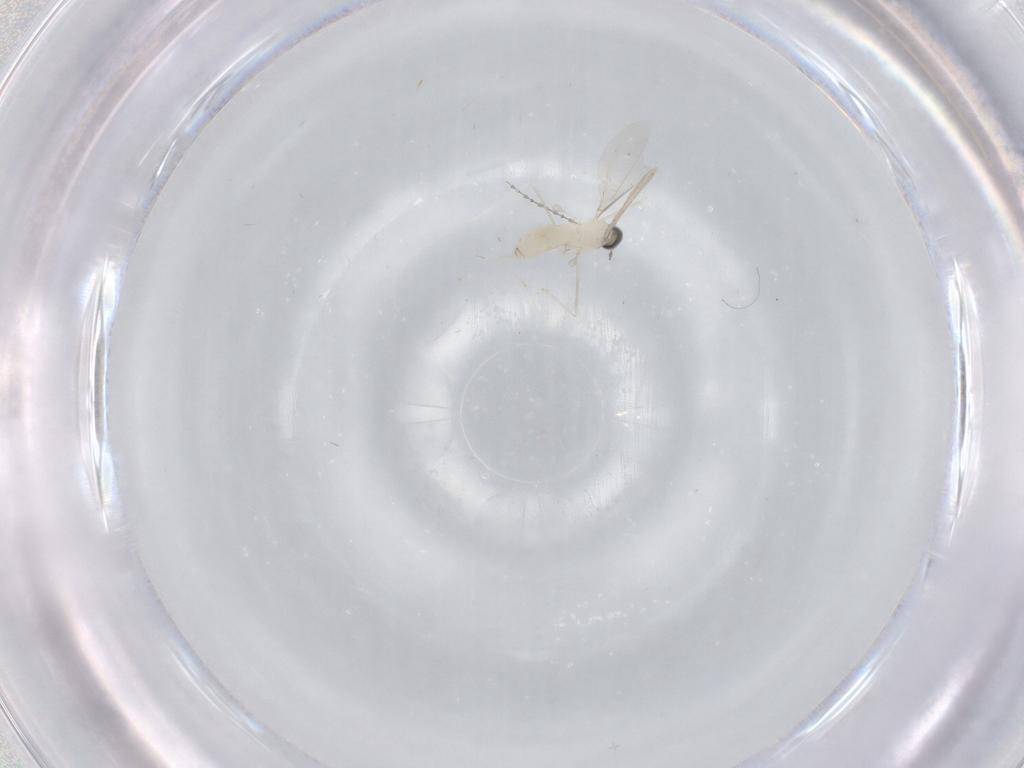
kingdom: Animalia
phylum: Arthropoda
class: Insecta
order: Diptera
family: Cecidomyiidae
